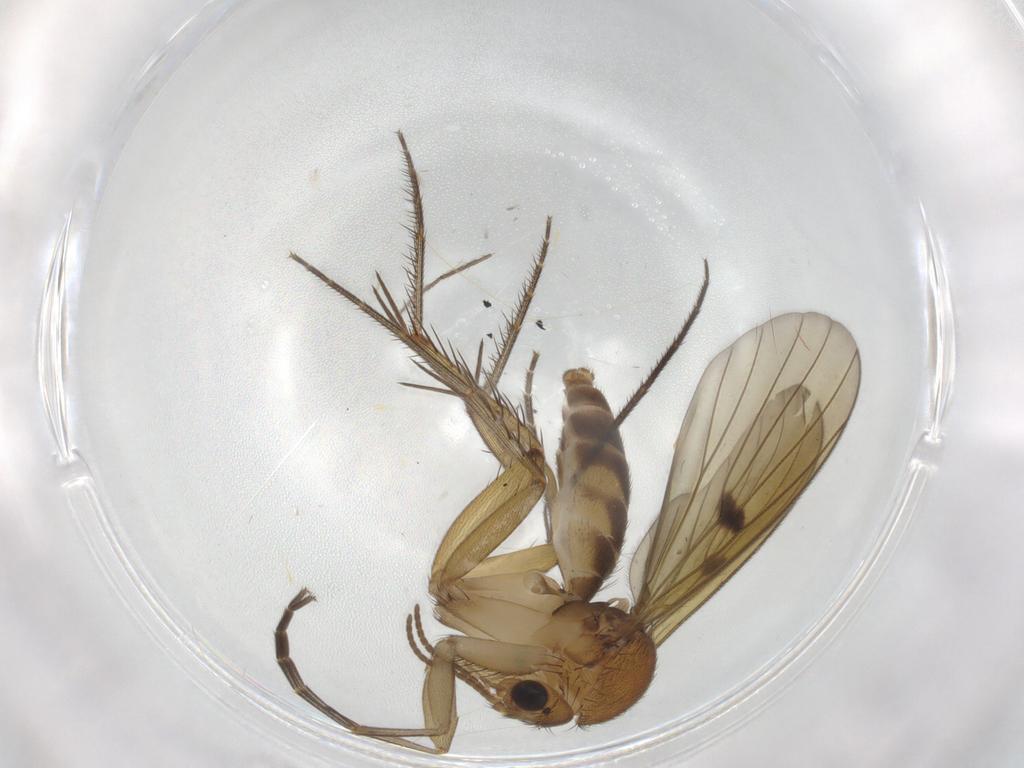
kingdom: Animalia
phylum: Arthropoda
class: Insecta
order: Diptera
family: Mycetophilidae
